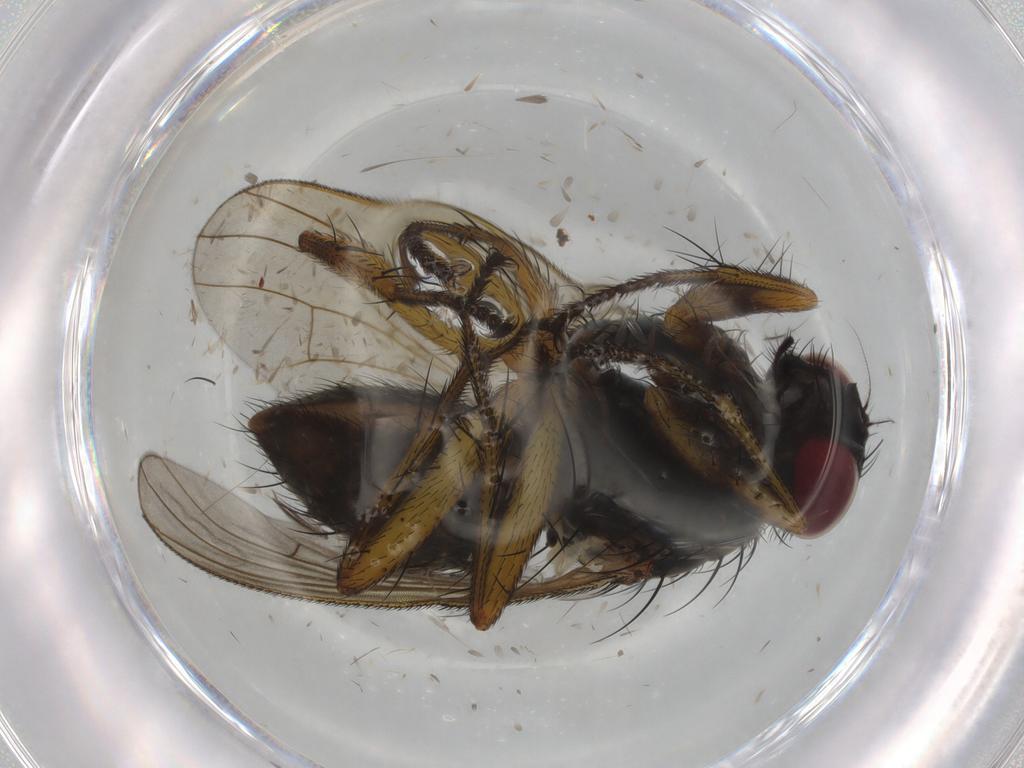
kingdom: Animalia
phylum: Arthropoda
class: Insecta
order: Diptera
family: Muscidae
